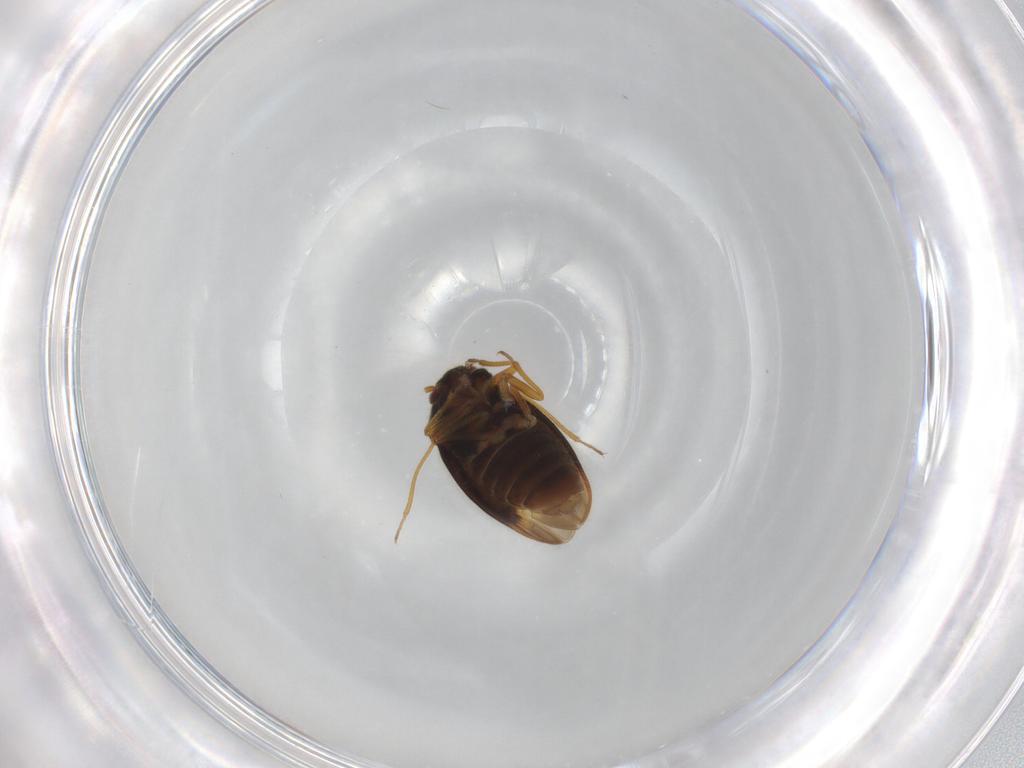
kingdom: Animalia
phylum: Arthropoda
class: Insecta
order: Hemiptera
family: Schizopteridae
